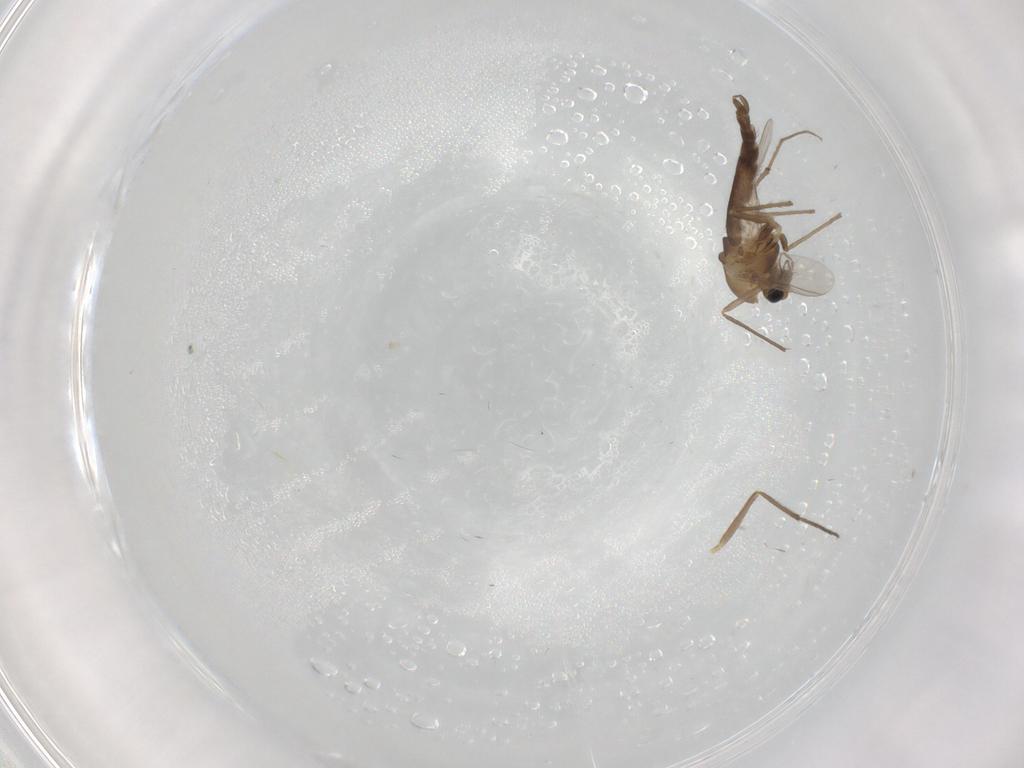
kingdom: Animalia
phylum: Arthropoda
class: Insecta
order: Diptera
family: Chironomidae
